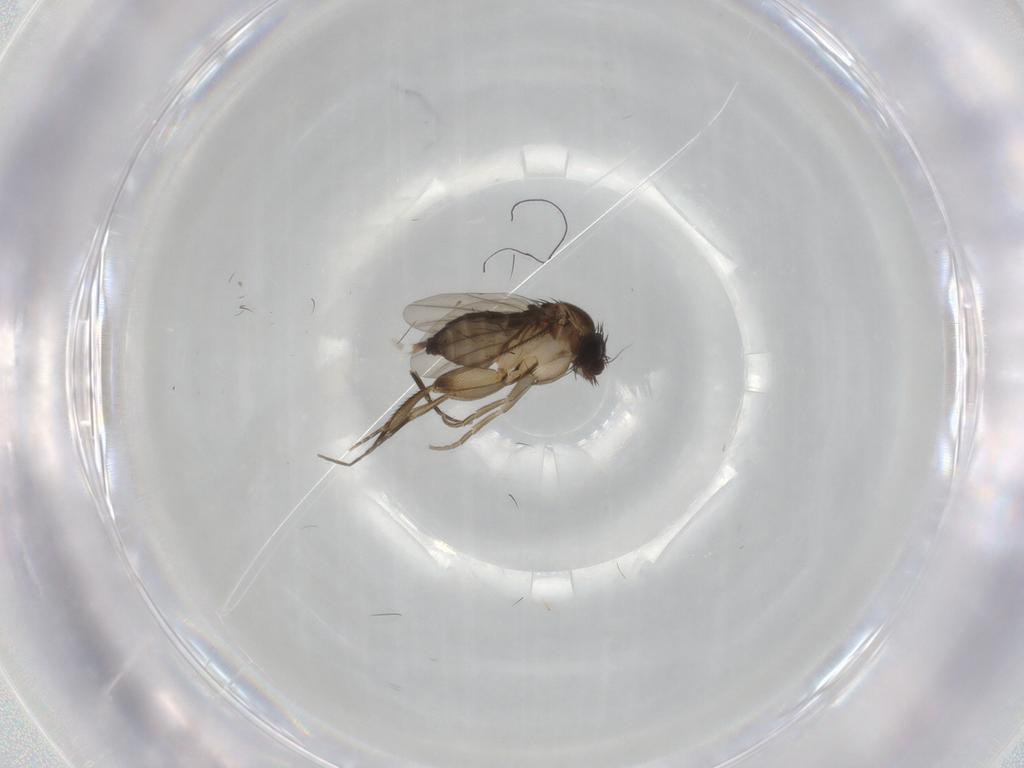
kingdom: Animalia
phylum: Arthropoda
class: Insecta
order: Diptera
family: Phoridae
